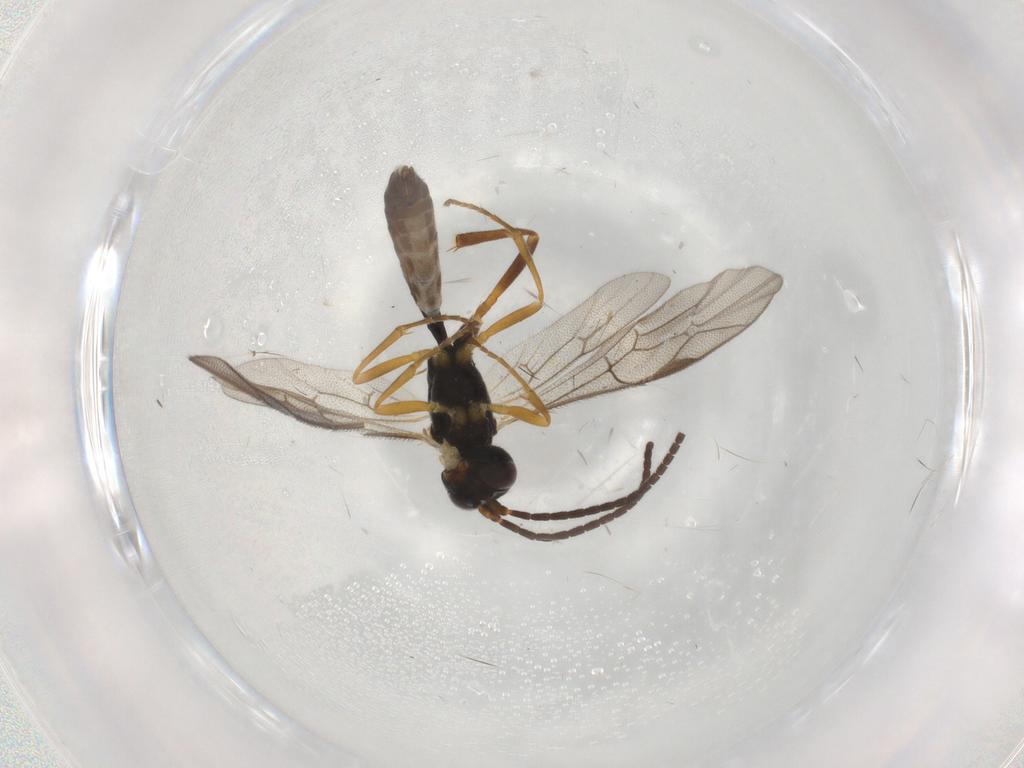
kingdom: Animalia
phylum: Arthropoda
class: Insecta
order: Hymenoptera
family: Ichneumonidae
